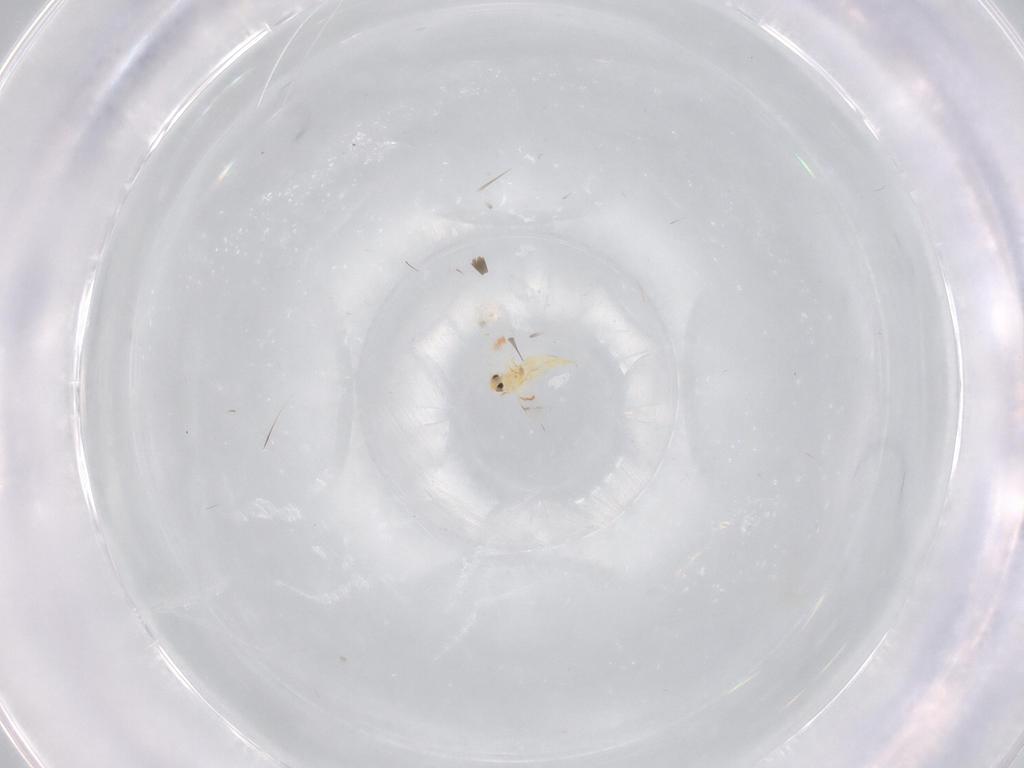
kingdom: Animalia
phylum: Arthropoda
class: Insecta
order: Hemiptera
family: Aleyrodidae
